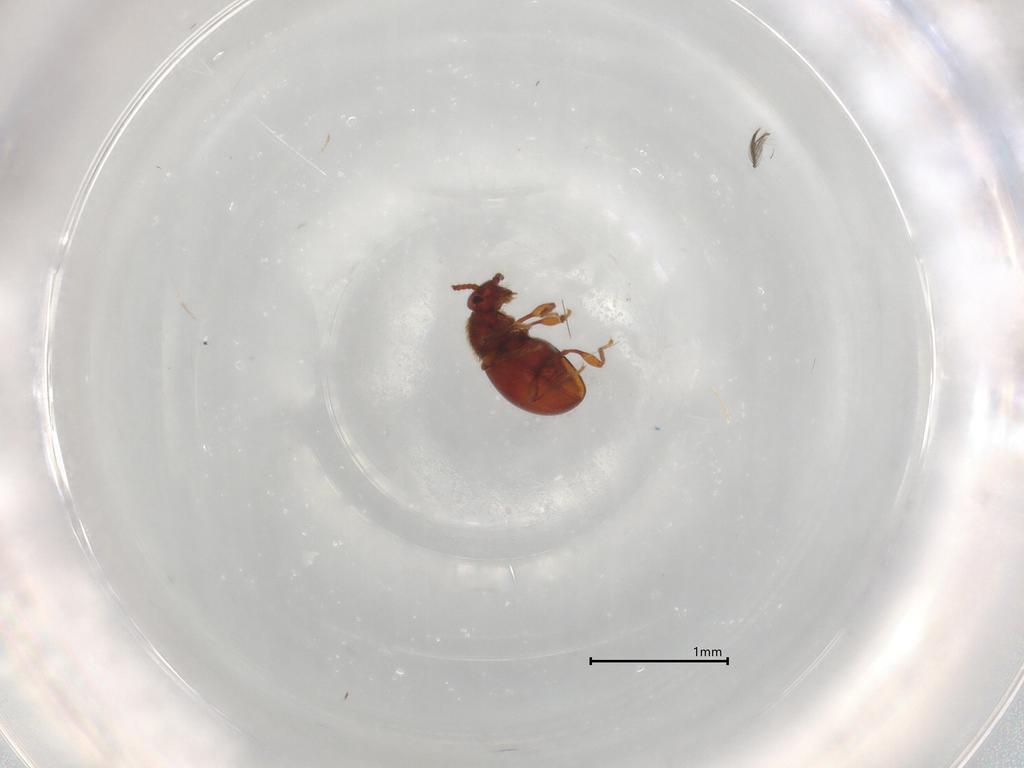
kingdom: Animalia
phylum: Arthropoda
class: Insecta
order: Coleoptera
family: Staphylinidae
